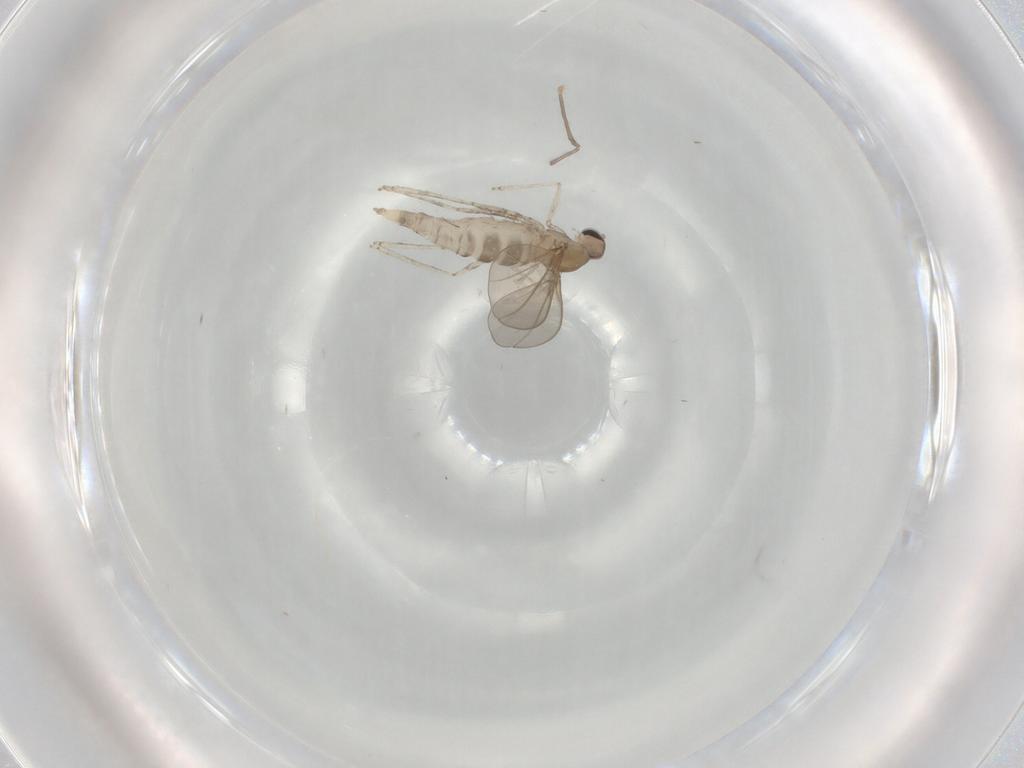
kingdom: Animalia
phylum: Arthropoda
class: Insecta
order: Diptera
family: Cecidomyiidae
